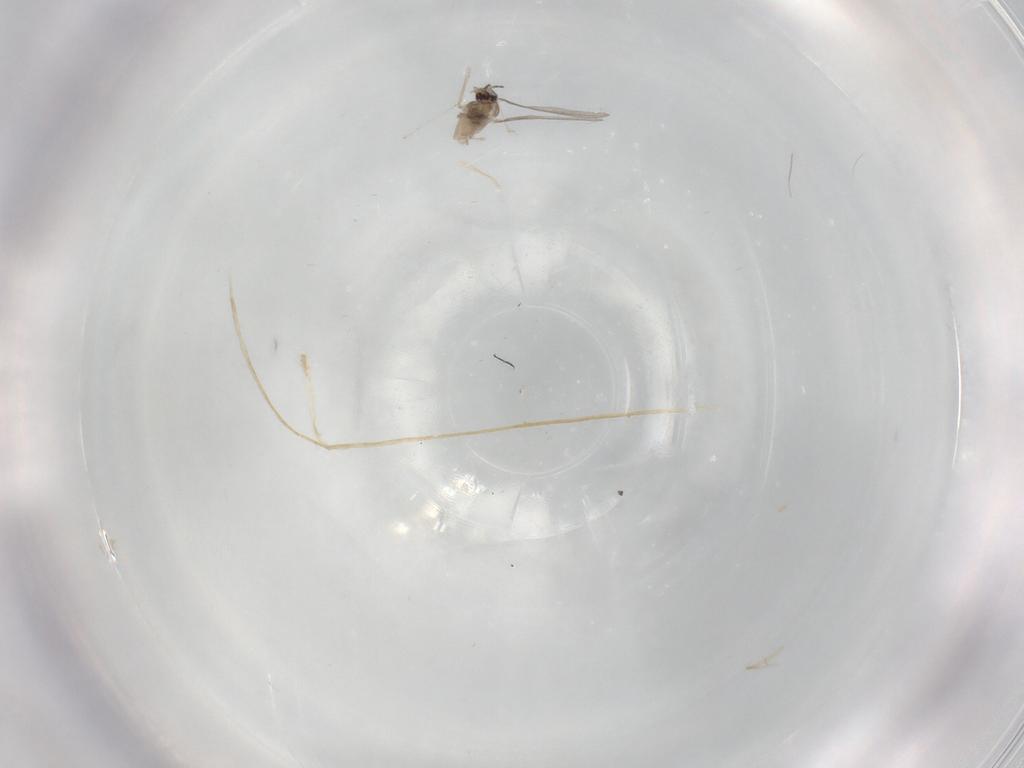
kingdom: Animalia
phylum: Arthropoda
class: Insecta
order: Diptera
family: Cecidomyiidae
